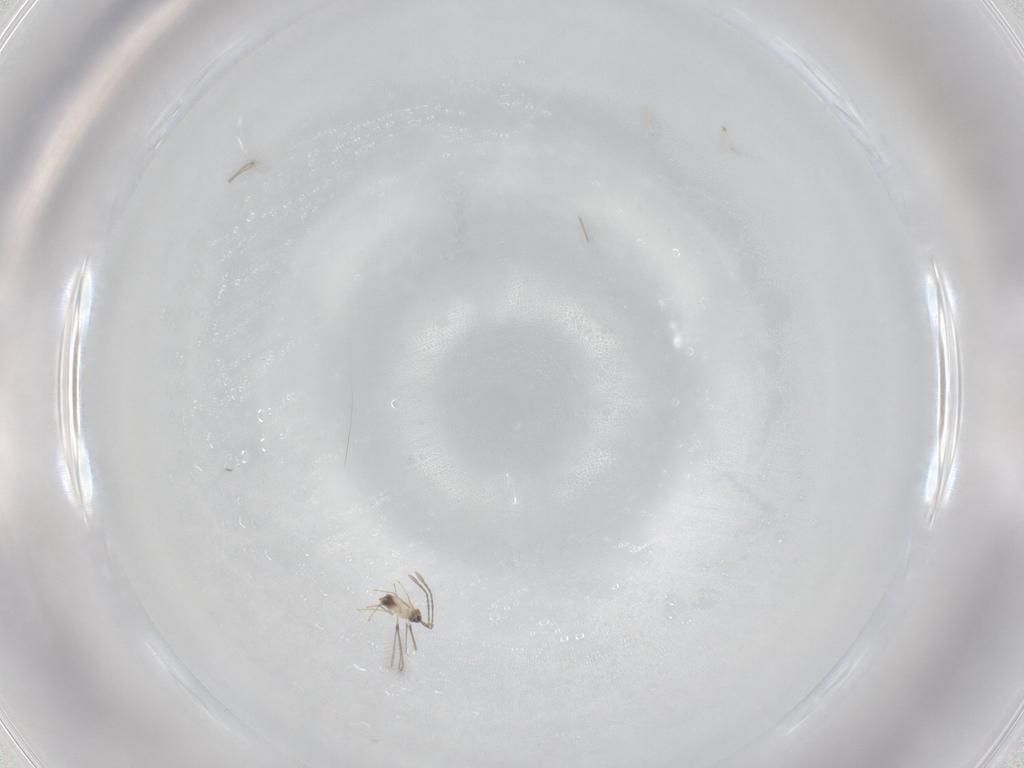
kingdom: Animalia
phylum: Arthropoda
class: Insecta
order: Hymenoptera
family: Mymaridae
